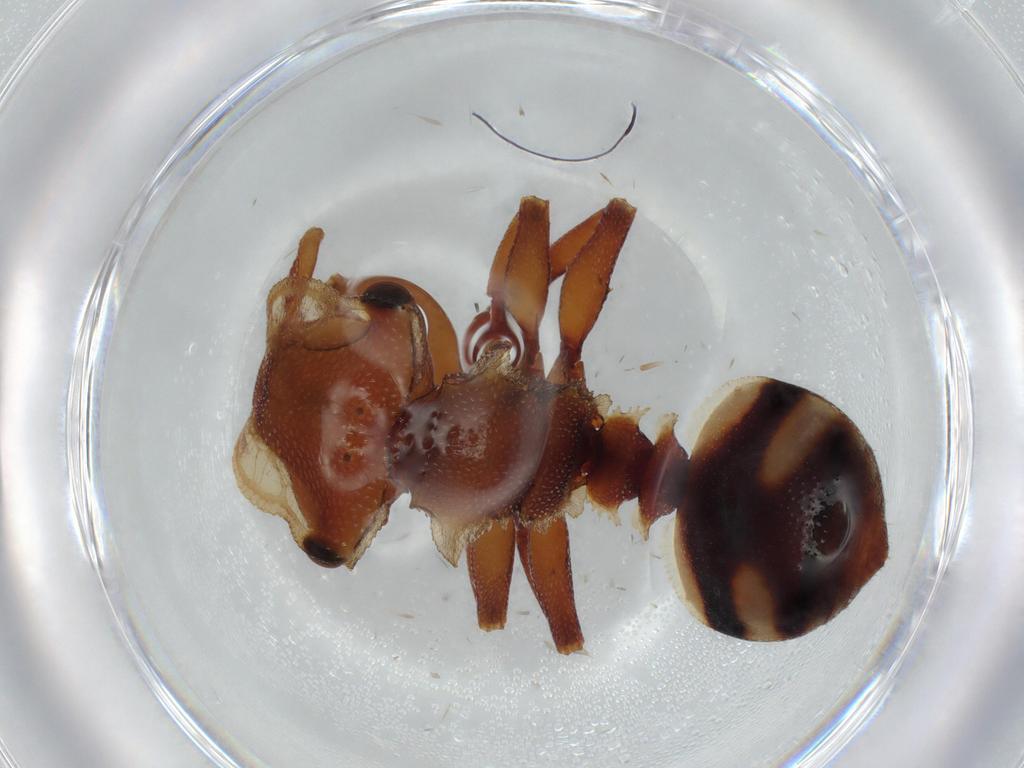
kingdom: Animalia
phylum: Arthropoda
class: Insecta
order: Hymenoptera
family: Formicidae
